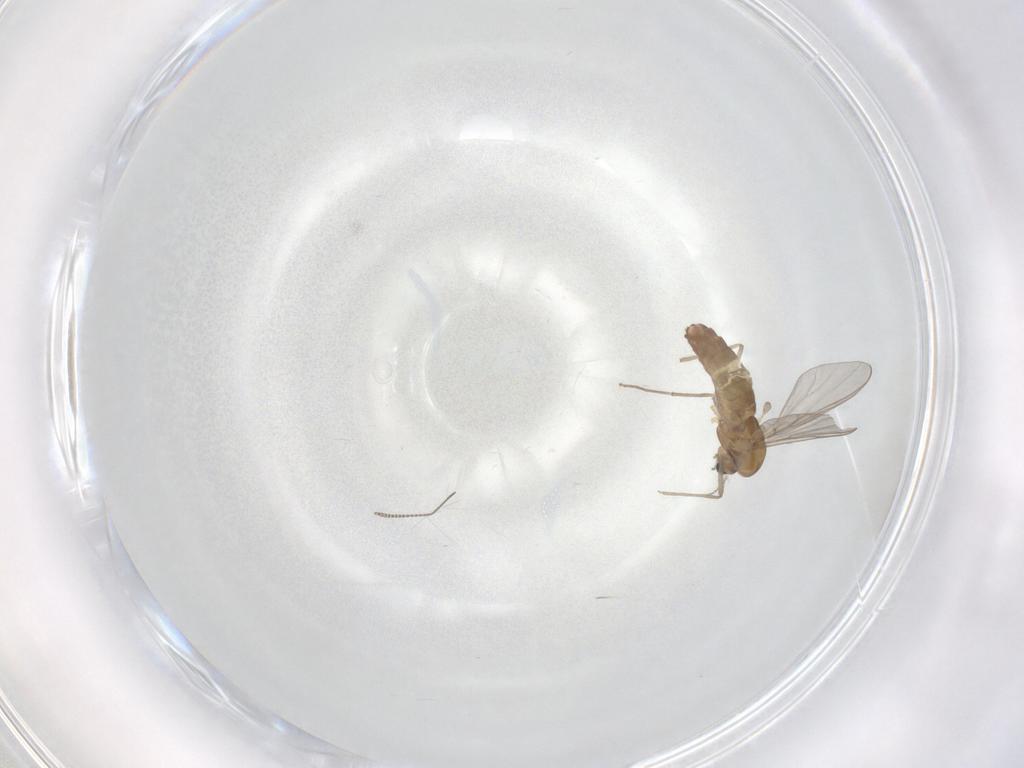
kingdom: Animalia
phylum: Arthropoda
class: Insecta
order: Diptera
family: Chironomidae
